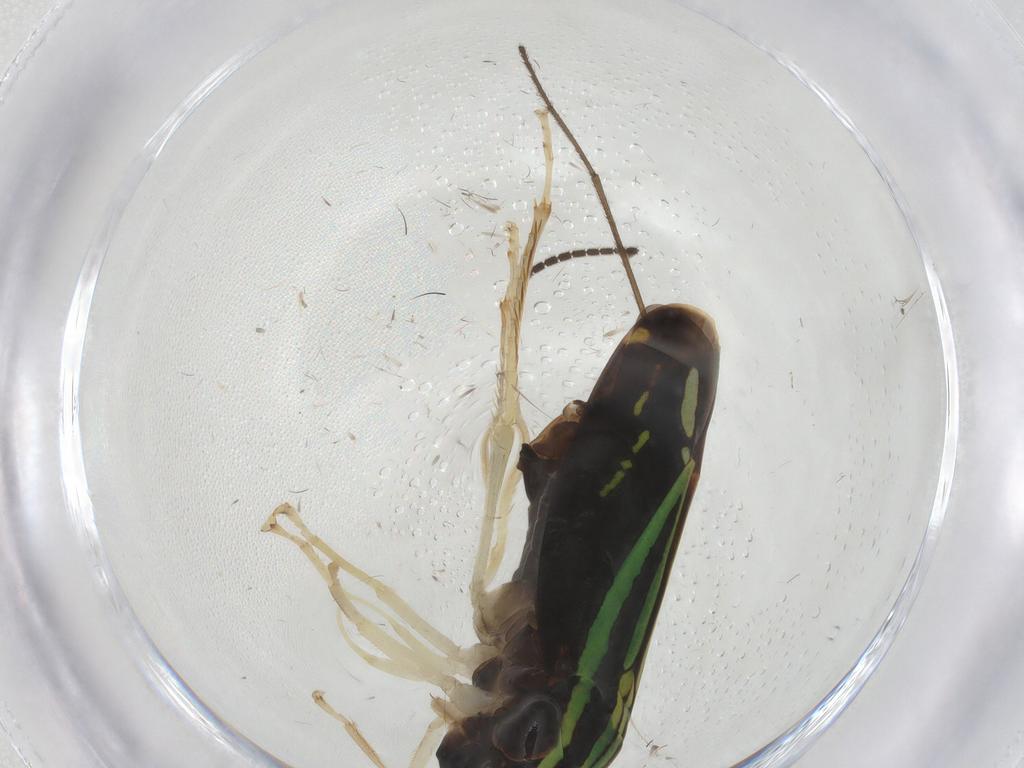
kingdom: Animalia
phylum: Arthropoda
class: Insecta
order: Hemiptera
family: Cicadellidae
